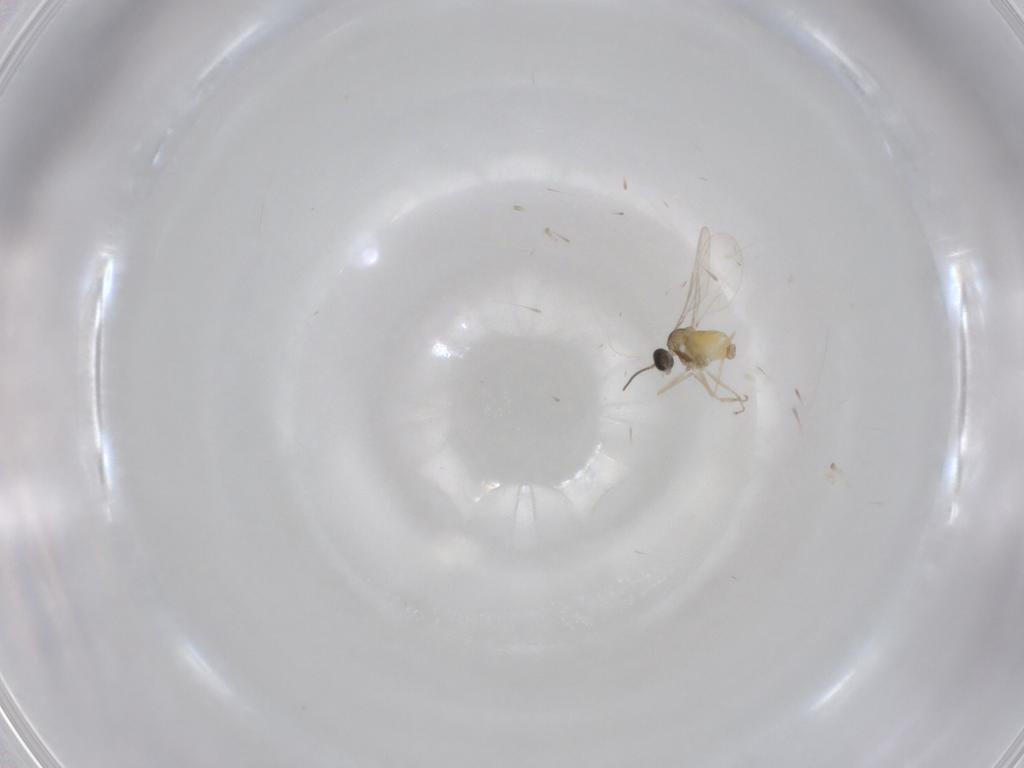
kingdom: Animalia
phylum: Arthropoda
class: Insecta
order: Diptera
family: Cecidomyiidae
